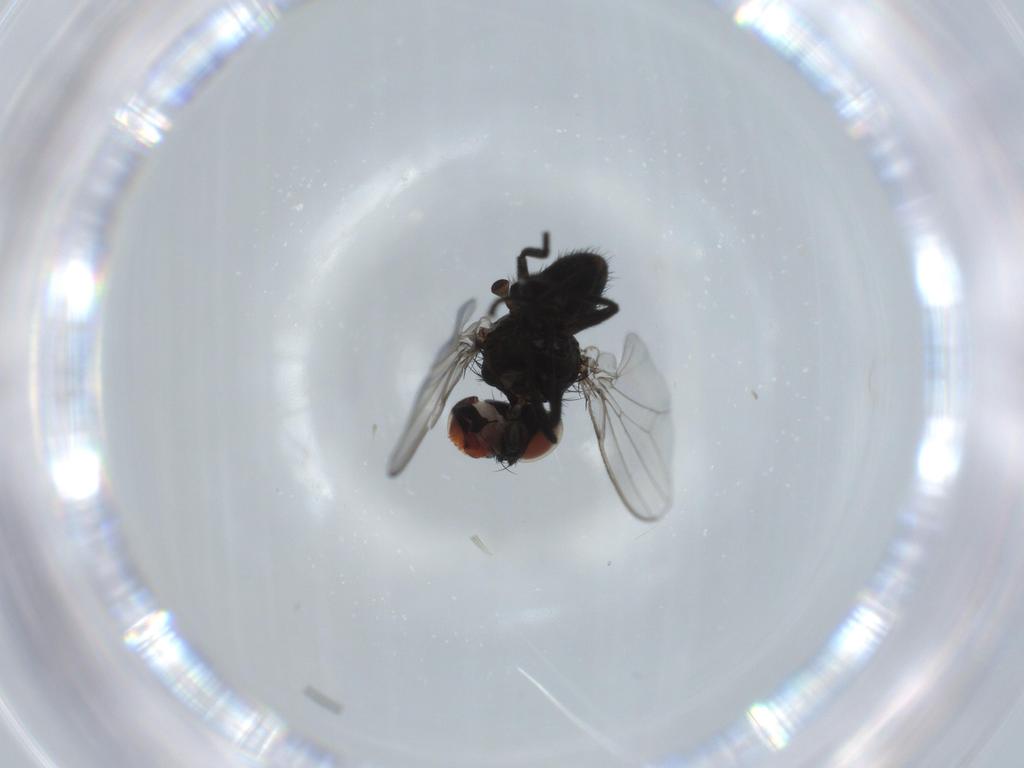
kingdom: Animalia
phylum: Arthropoda
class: Insecta
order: Diptera
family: Milichiidae
